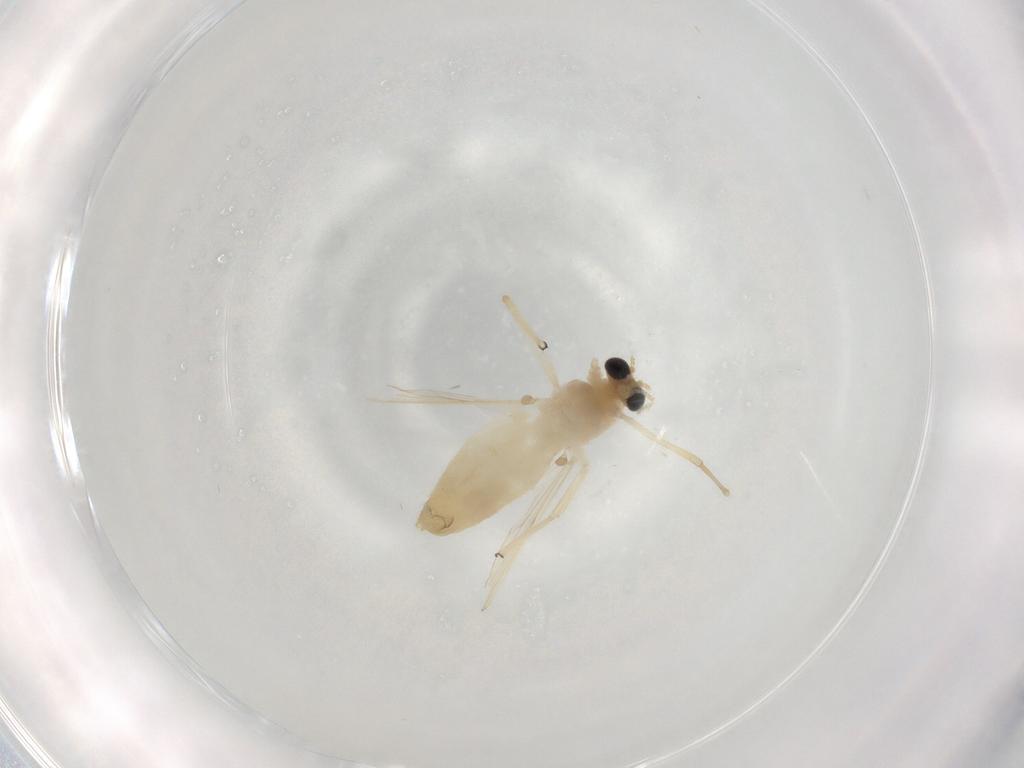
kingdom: Animalia
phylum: Arthropoda
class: Insecta
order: Diptera
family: Chironomidae
